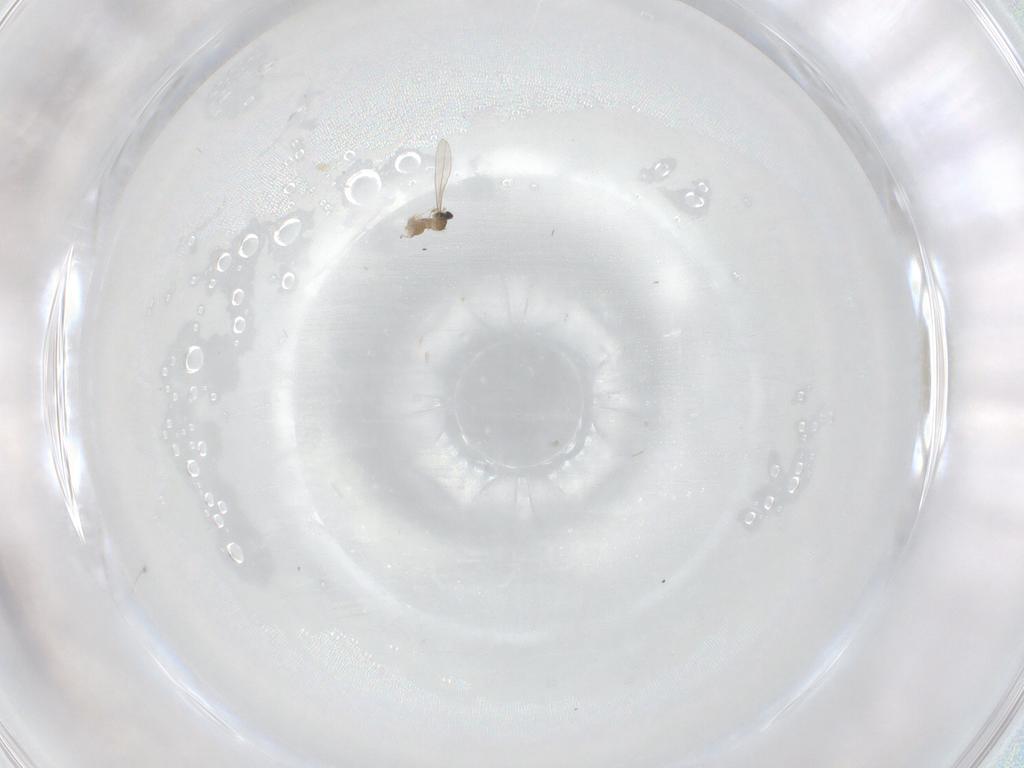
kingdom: Animalia
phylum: Arthropoda
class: Insecta
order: Diptera
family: Cecidomyiidae
